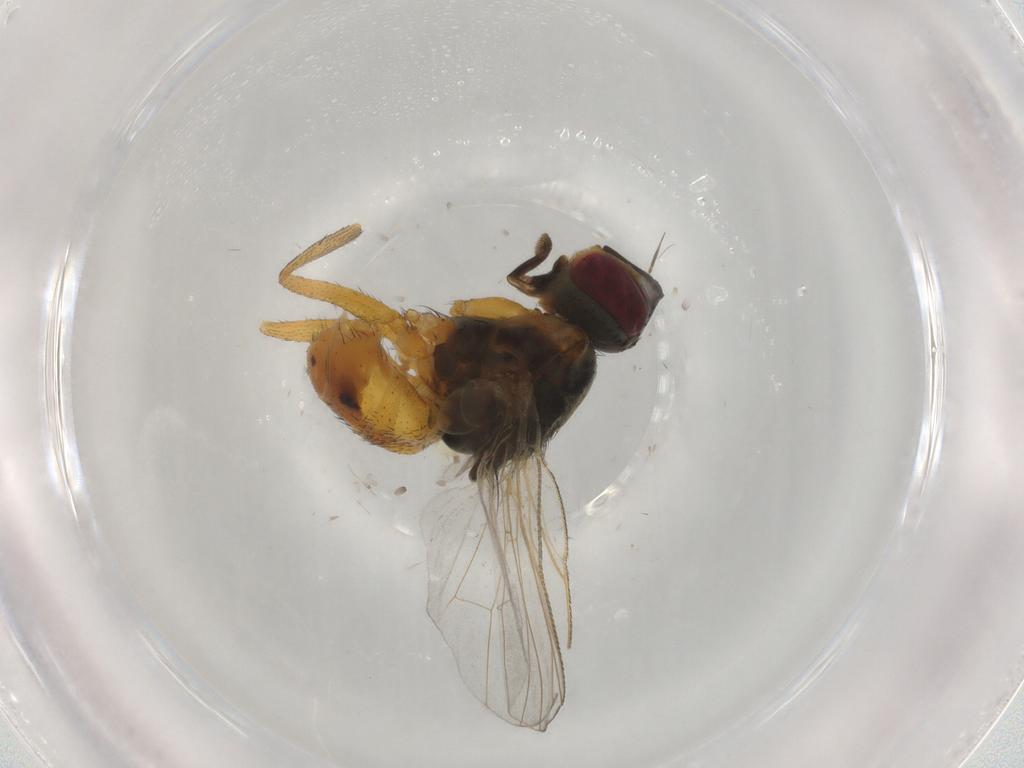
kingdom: Animalia
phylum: Arthropoda
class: Insecta
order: Diptera
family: Muscidae
